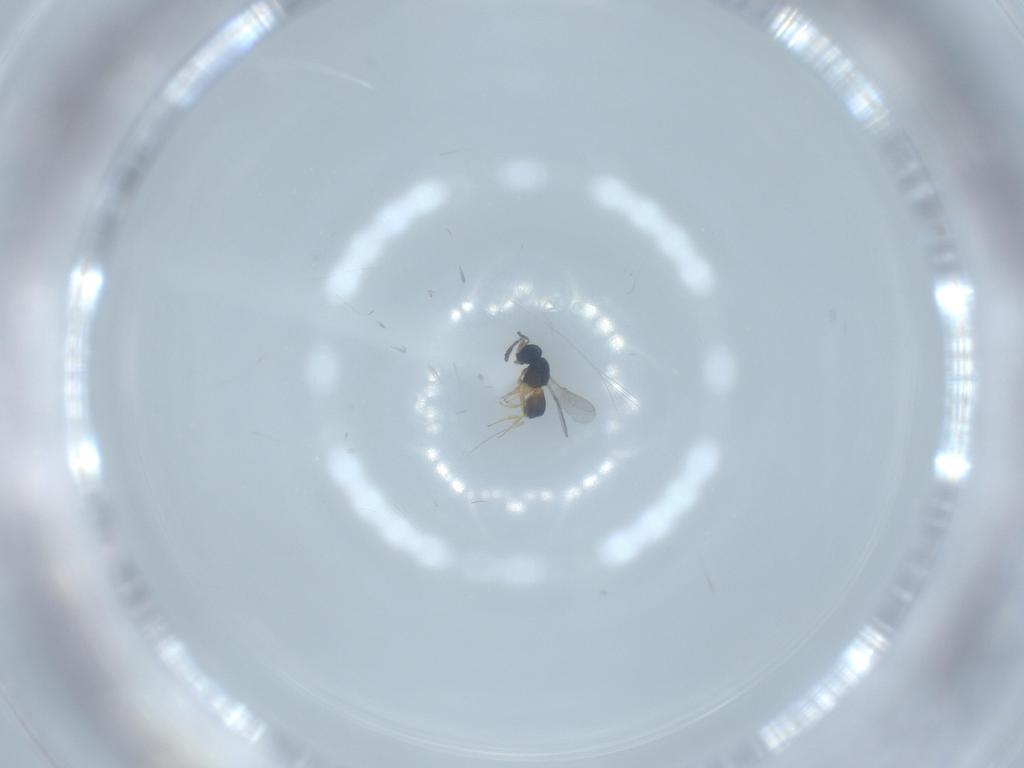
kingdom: Animalia
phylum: Arthropoda
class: Insecta
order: Hymenoptera
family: Scelionidae
